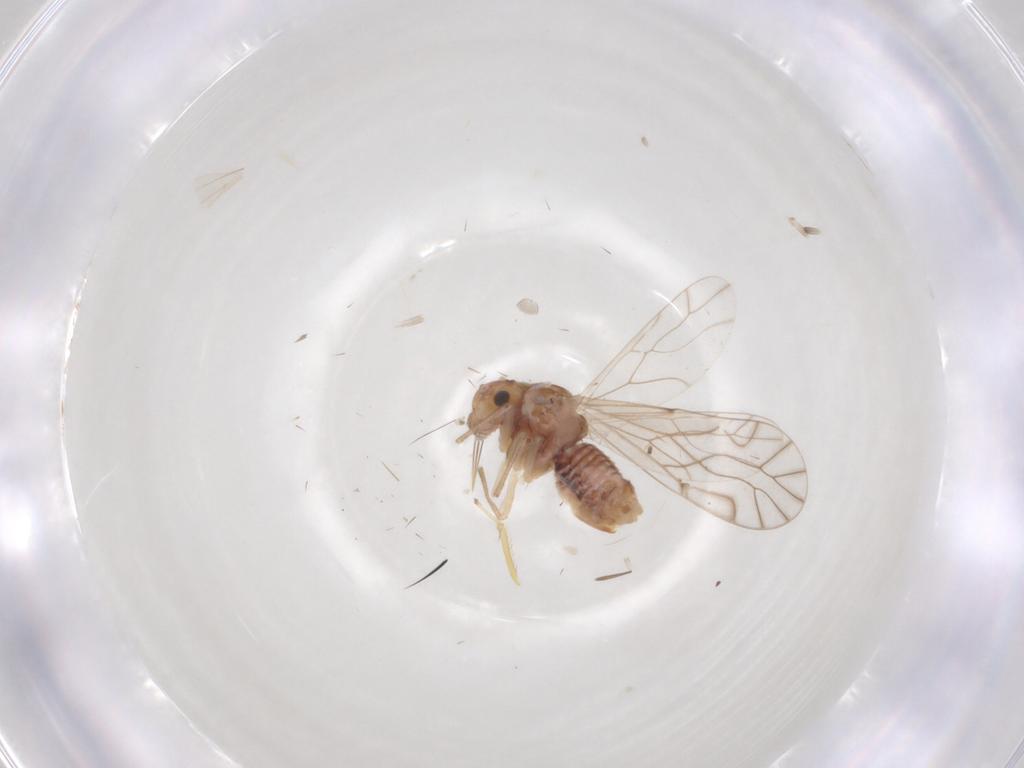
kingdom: Animalia
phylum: Arthropoda
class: Insecta
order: Psocodea
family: Lachesillidae
